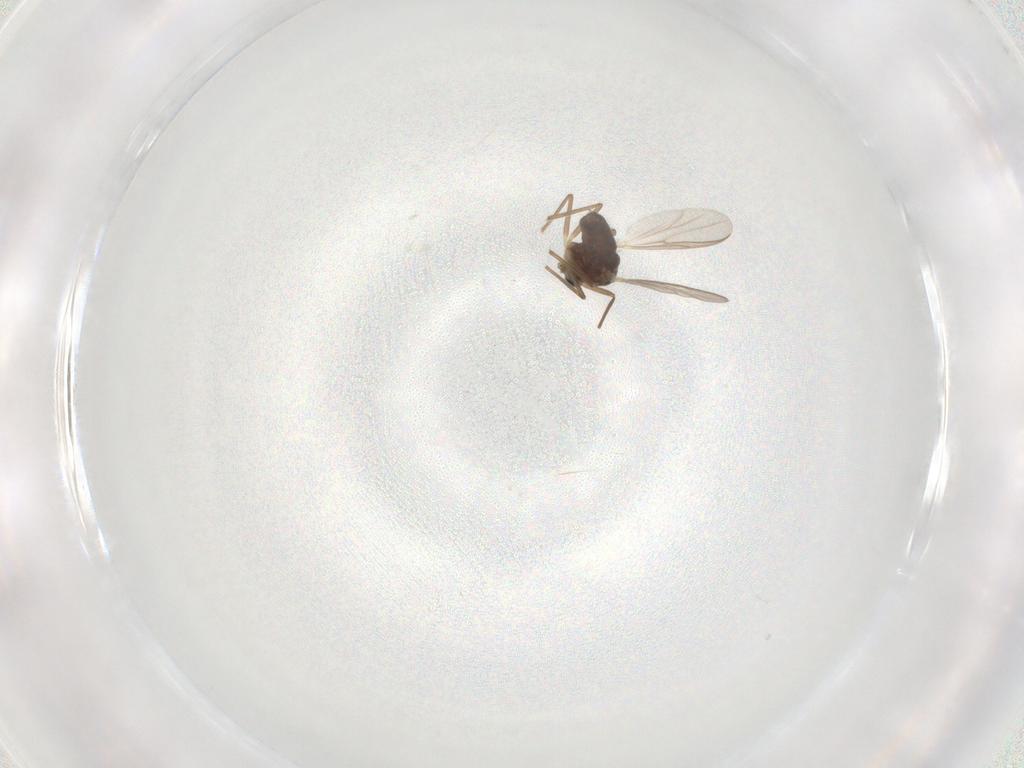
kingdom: Animalia
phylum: Arthropoda
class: Insecta
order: Diptera
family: Chironomidae
